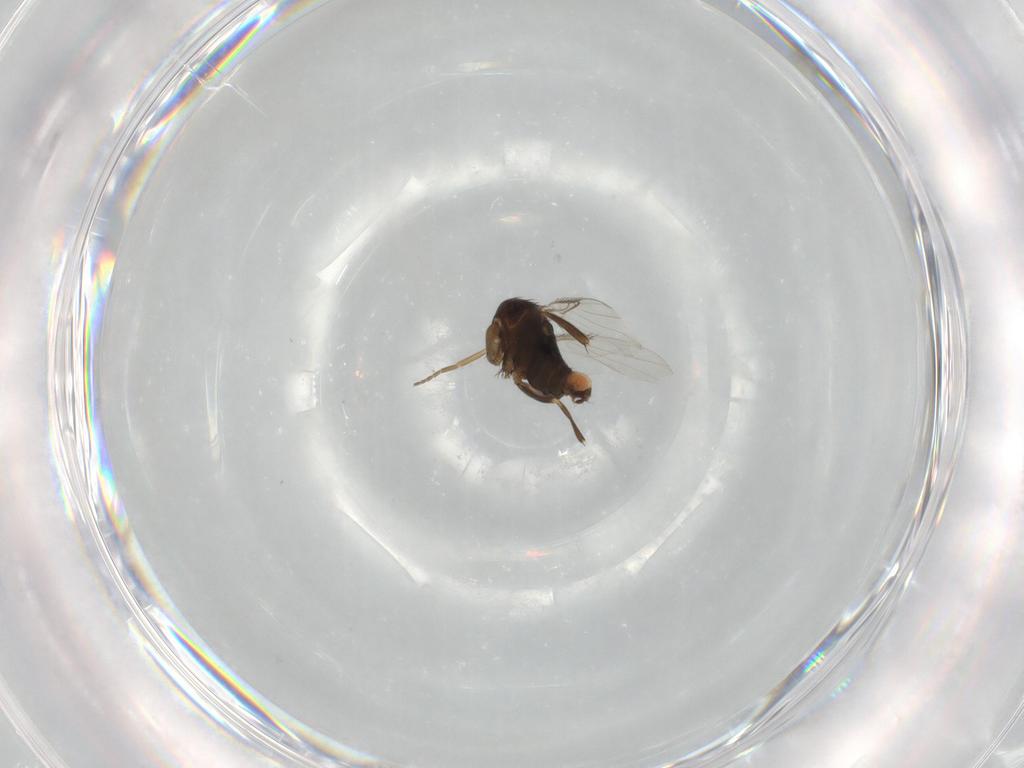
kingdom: Animalia
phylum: Arthropoda
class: Insecta
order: Diptera
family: Phoridae
